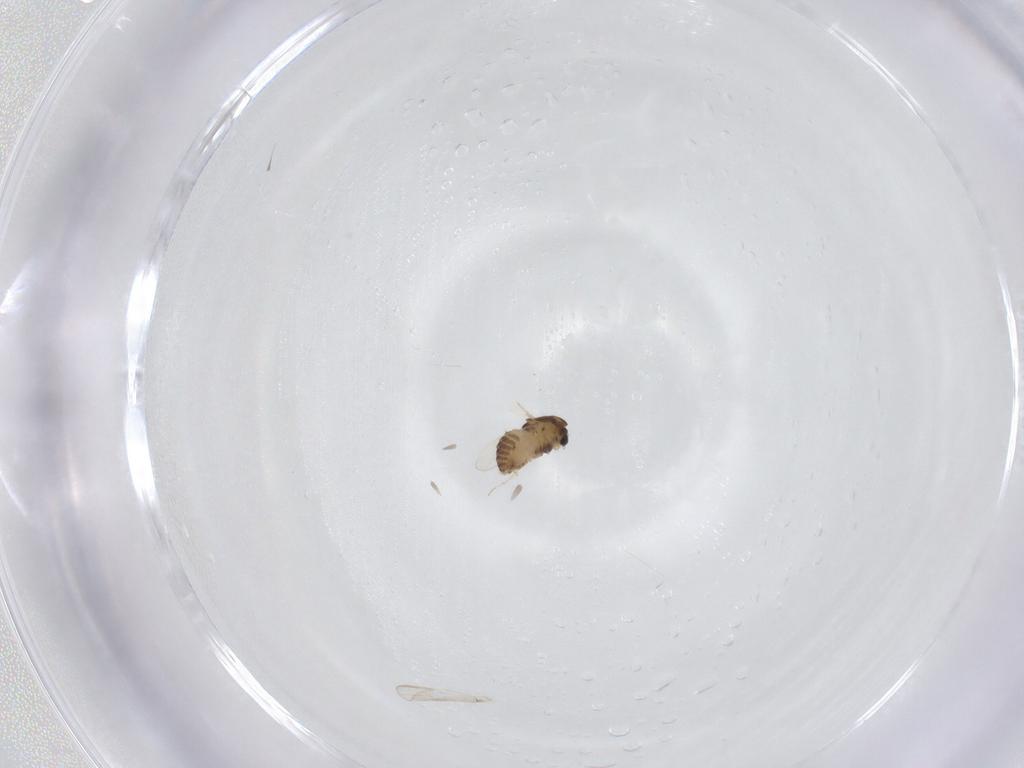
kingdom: Animalia
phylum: Arthropoda
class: Insecta
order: Diptera
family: Chironomidae
